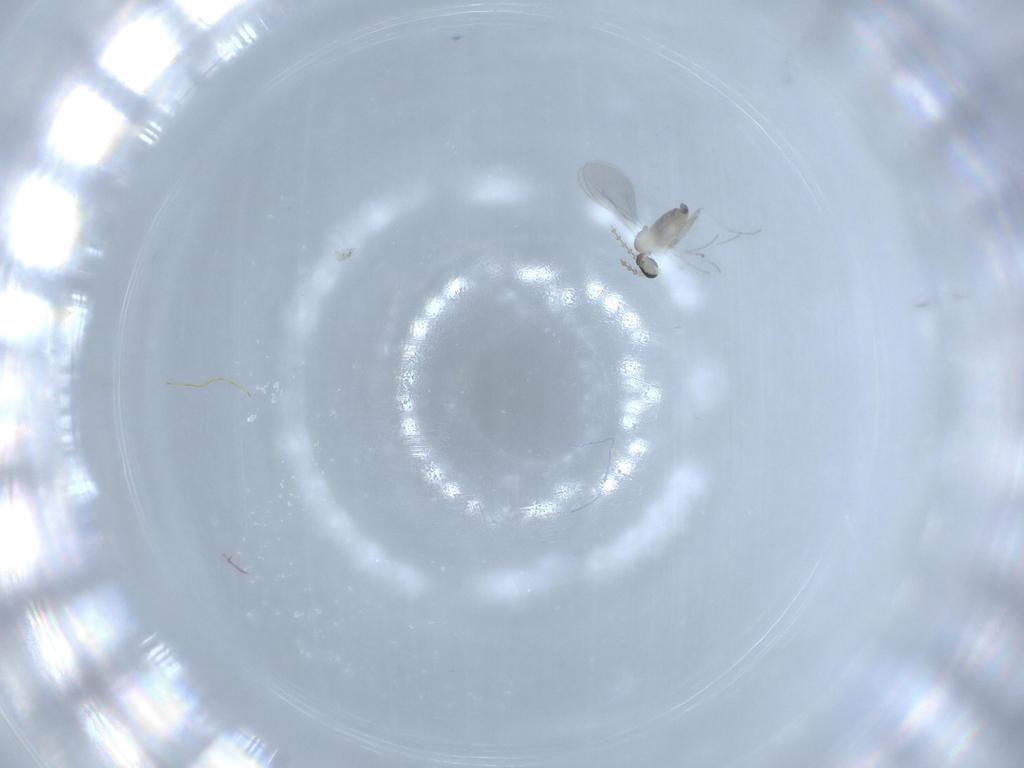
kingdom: Animalia
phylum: Arthropoda
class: Insecta
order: Diptera
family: Cecidomyiidae
